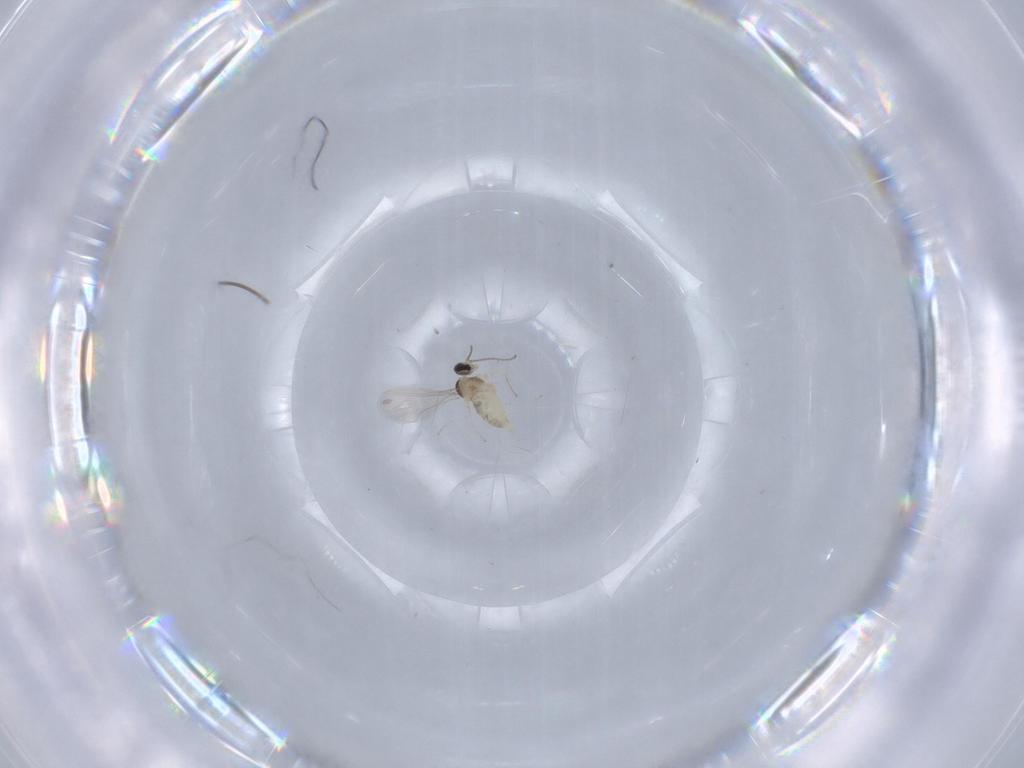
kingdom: Animalia
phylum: Arthropoda
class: Insecta
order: Diptera
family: Cecidomyiidae
